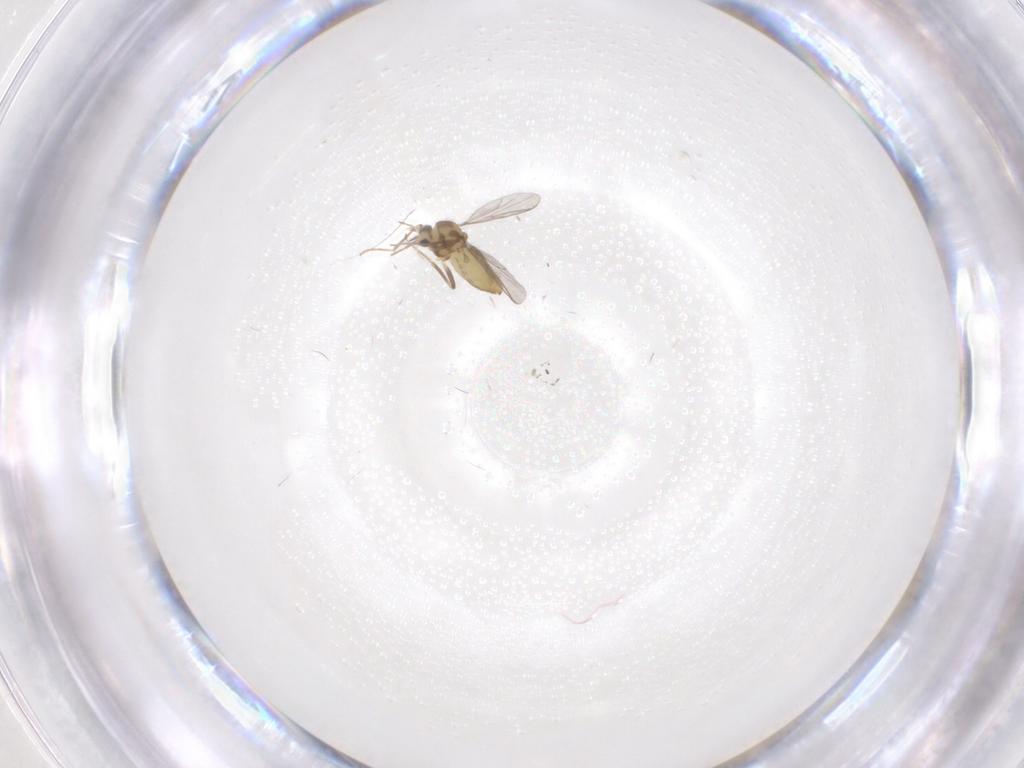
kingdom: Animalia
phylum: Arthropoda
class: Insecta
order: Diptera
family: Chironomidae
